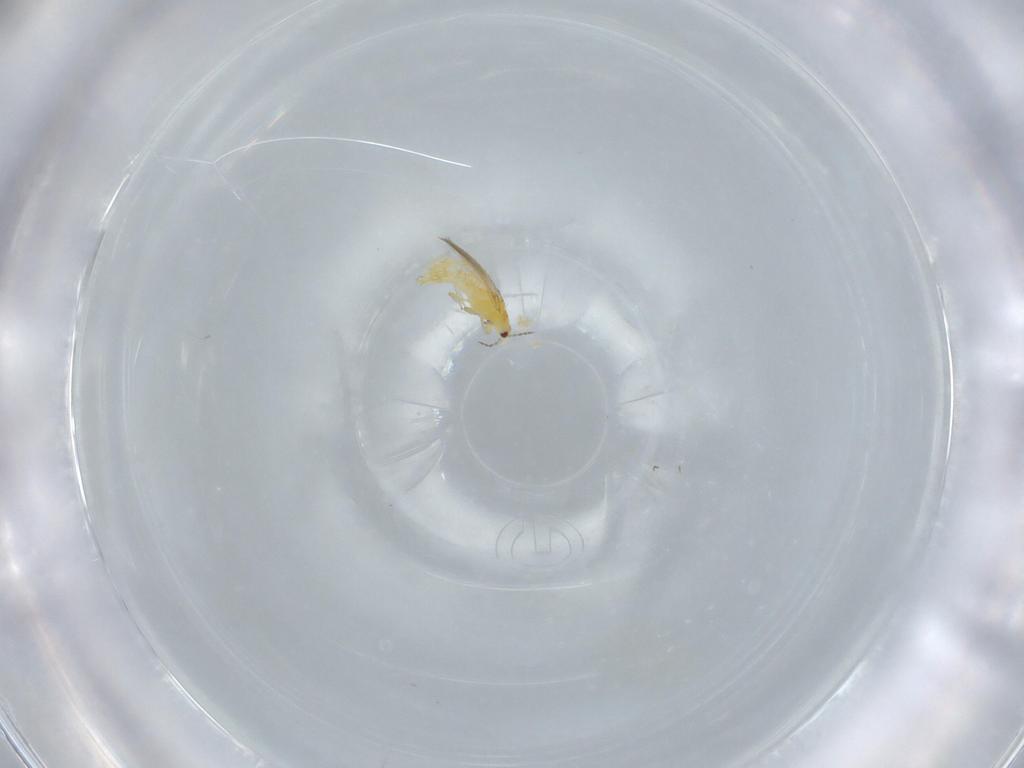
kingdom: Animalia
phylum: Arthropoda
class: Insecta
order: Thysanoptera
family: Thripidae
